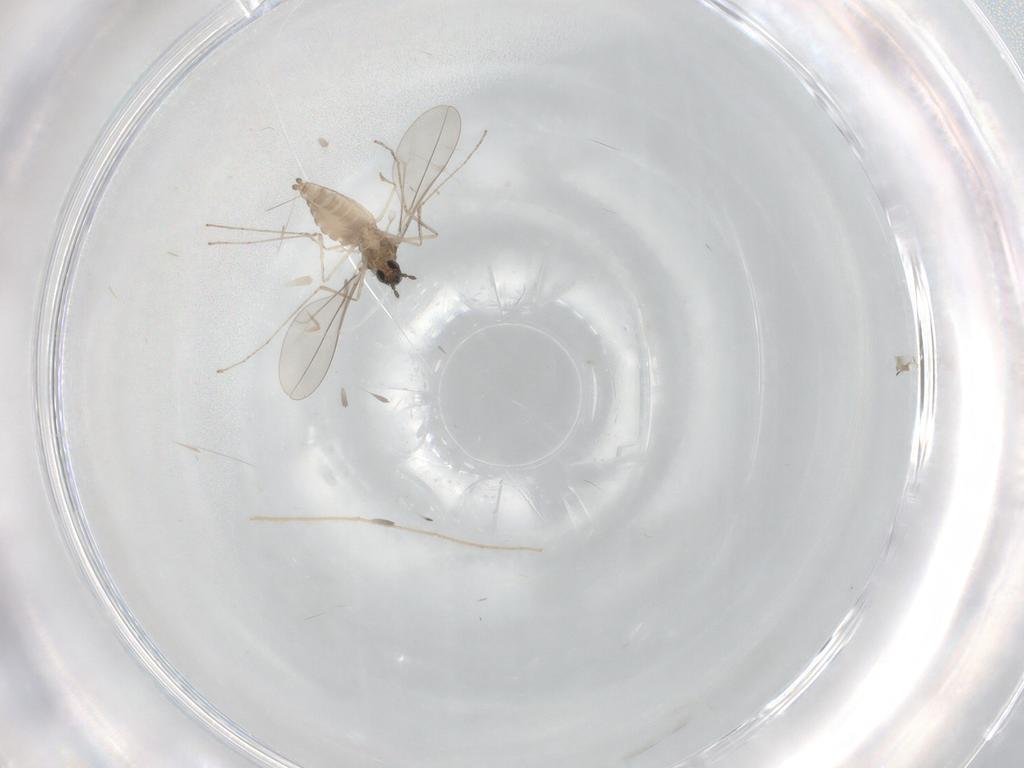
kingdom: Animalia
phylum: Arthropoda
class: Insecta
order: Diptera
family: Cecidomyiidae
